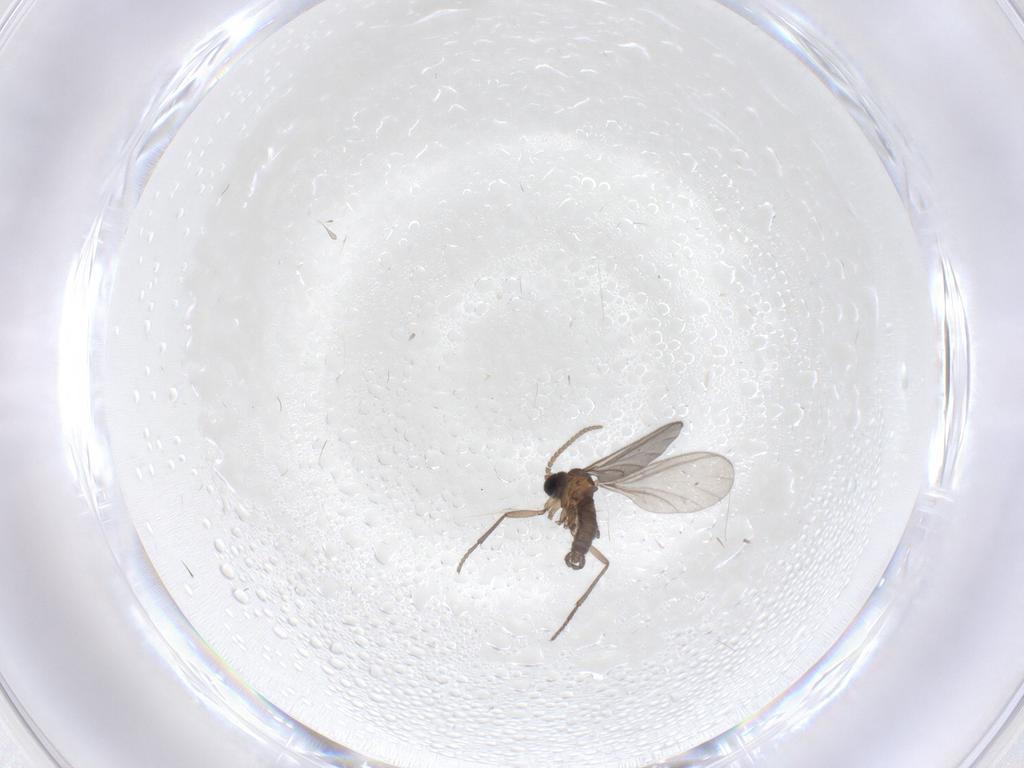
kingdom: Animalia
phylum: Arthropoda
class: Insecta
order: Diptera
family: Sciaridae
